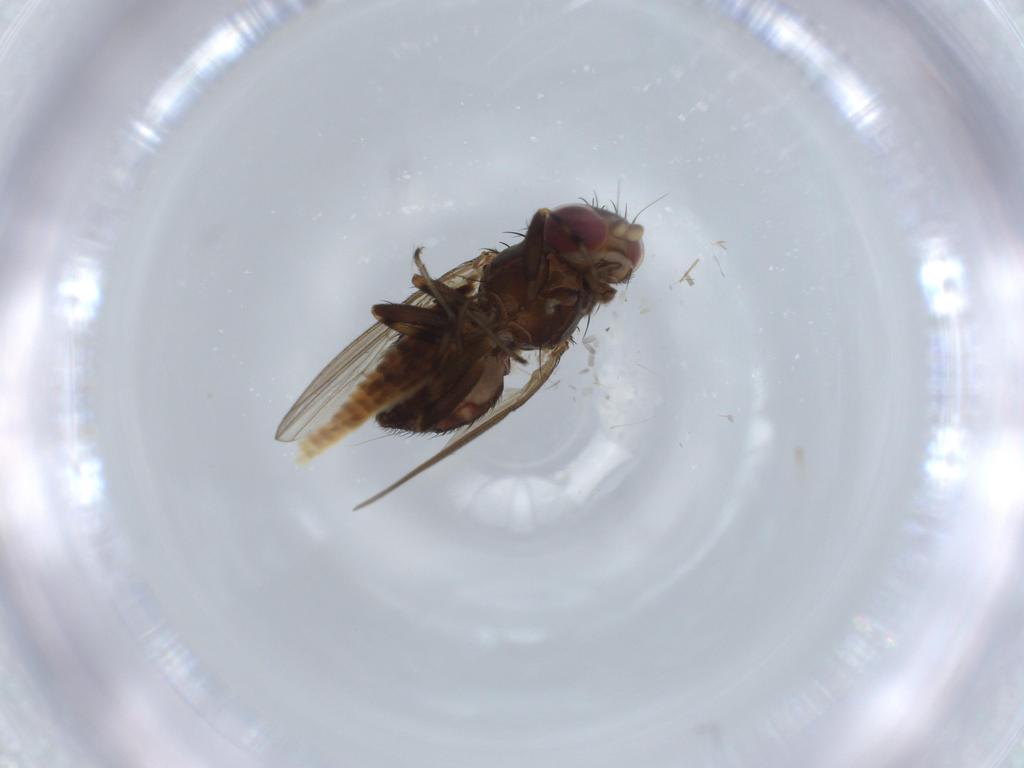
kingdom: Animalia
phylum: Arthropoda
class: Insecta
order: Diptera
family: Heleomyzidae
